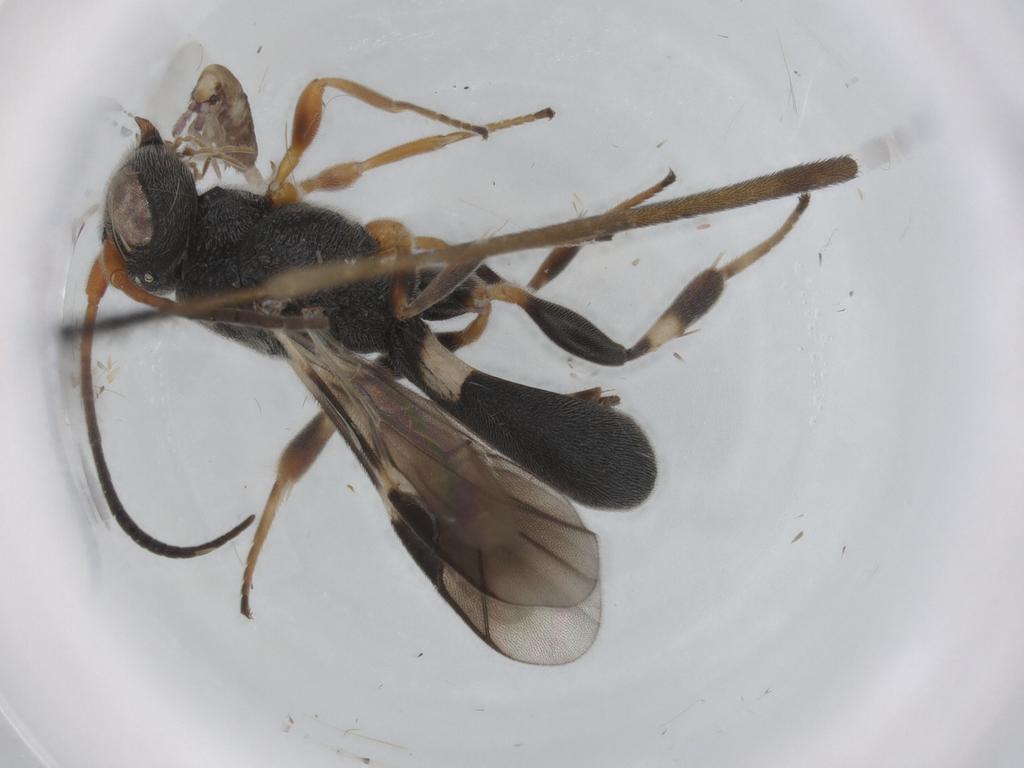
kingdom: Animalia
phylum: Arthropoda
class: Insecta
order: Hymenoptera
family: Braconidae
